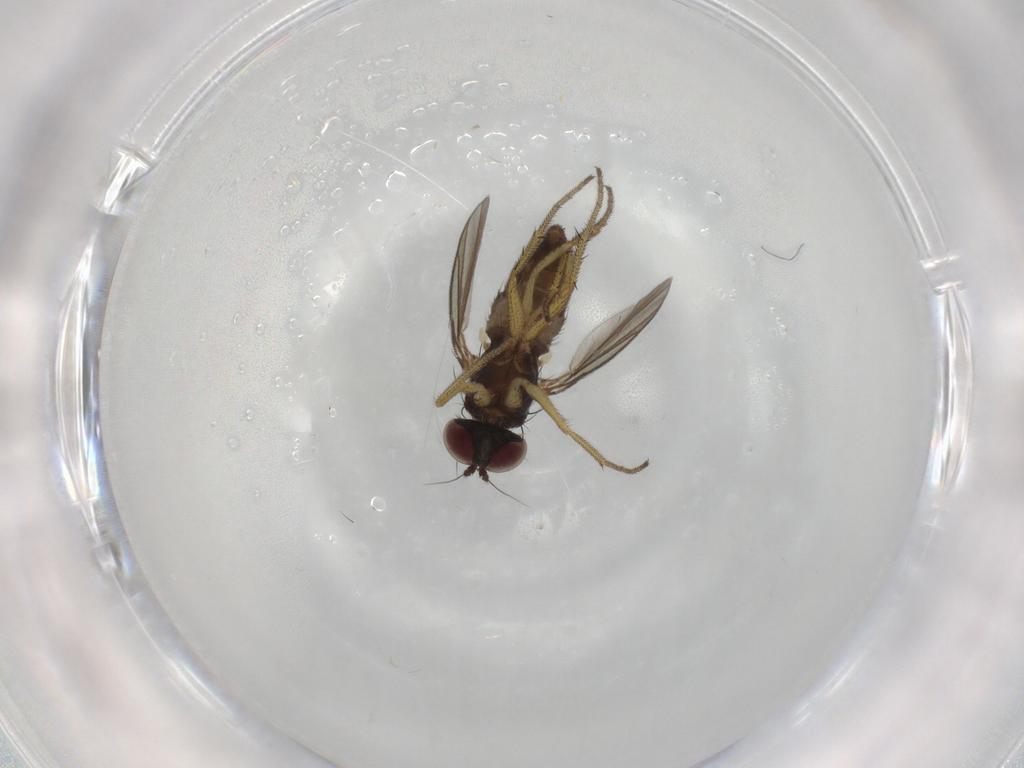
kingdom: Animalia
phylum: Arthropoda
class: Insecta
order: Diptera
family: Dolichopodidae
